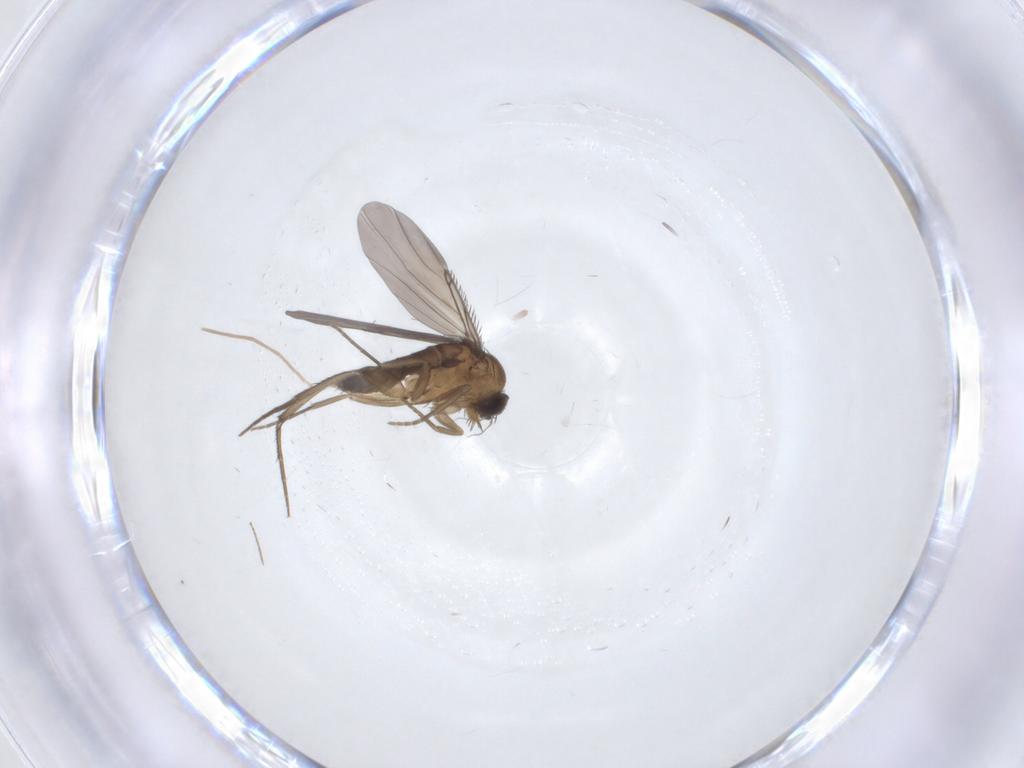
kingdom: Animalia
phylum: Arthropoda
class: Insecta
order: Diptera
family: Phoridae
